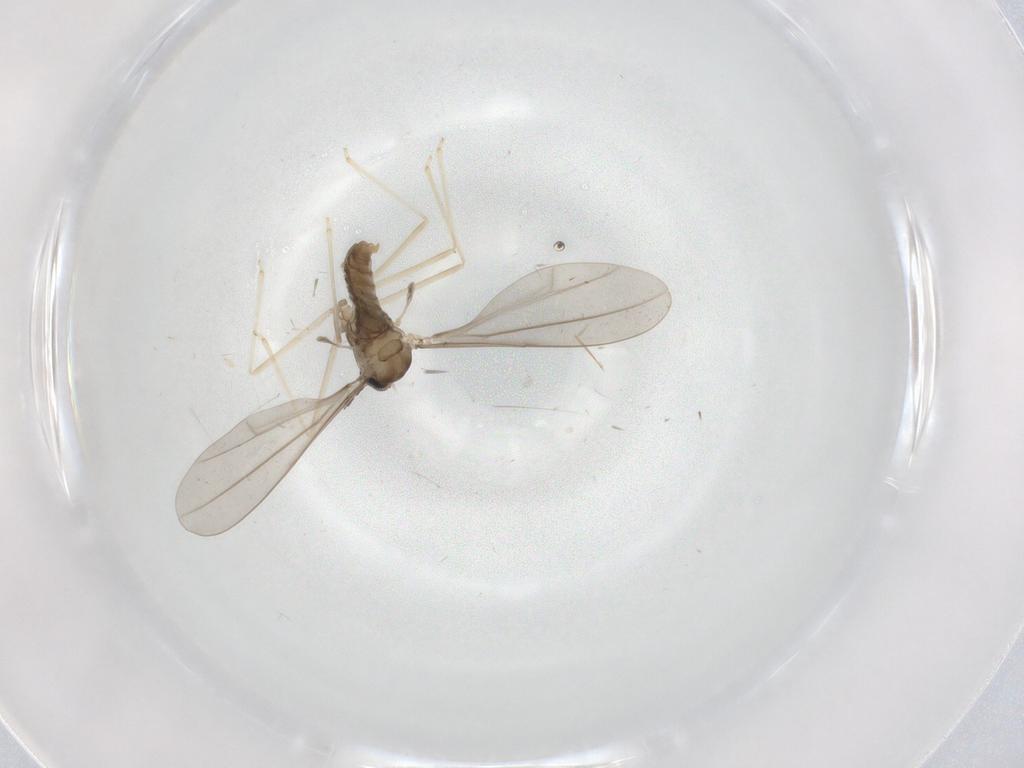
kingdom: Animalia
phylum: Arthropoda
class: Insecta
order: Diptera
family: Cecidomyiidae
